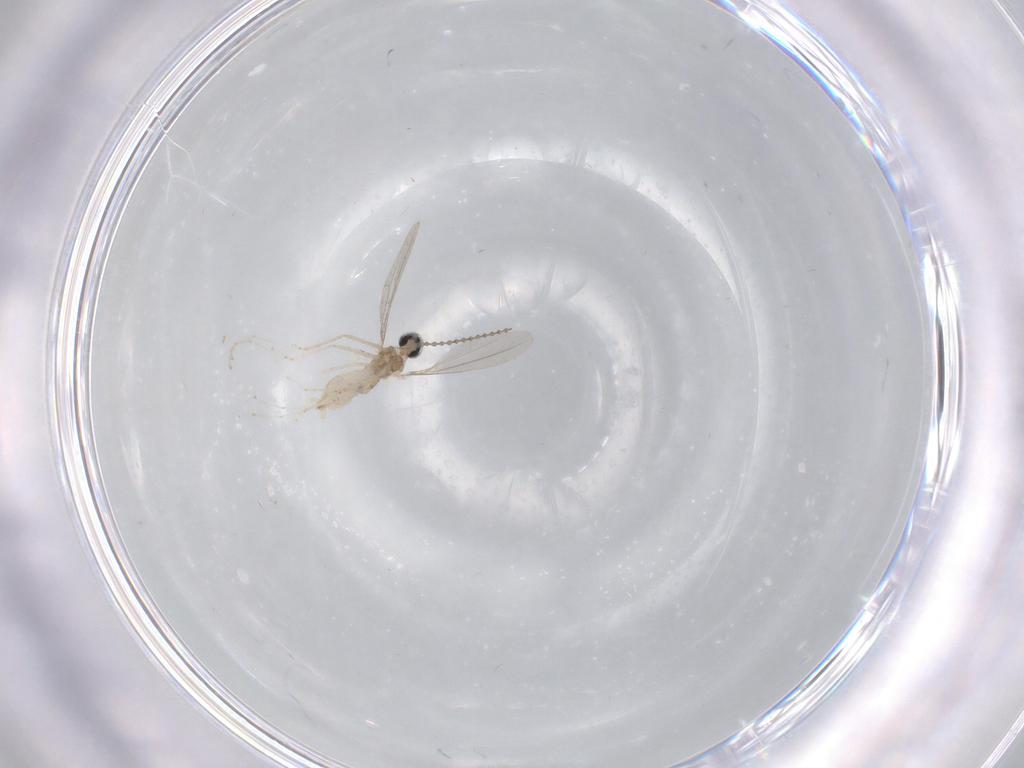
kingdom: Animalia
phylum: Arthropoda
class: Insecta
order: Diptera
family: Cecidomyiidae
